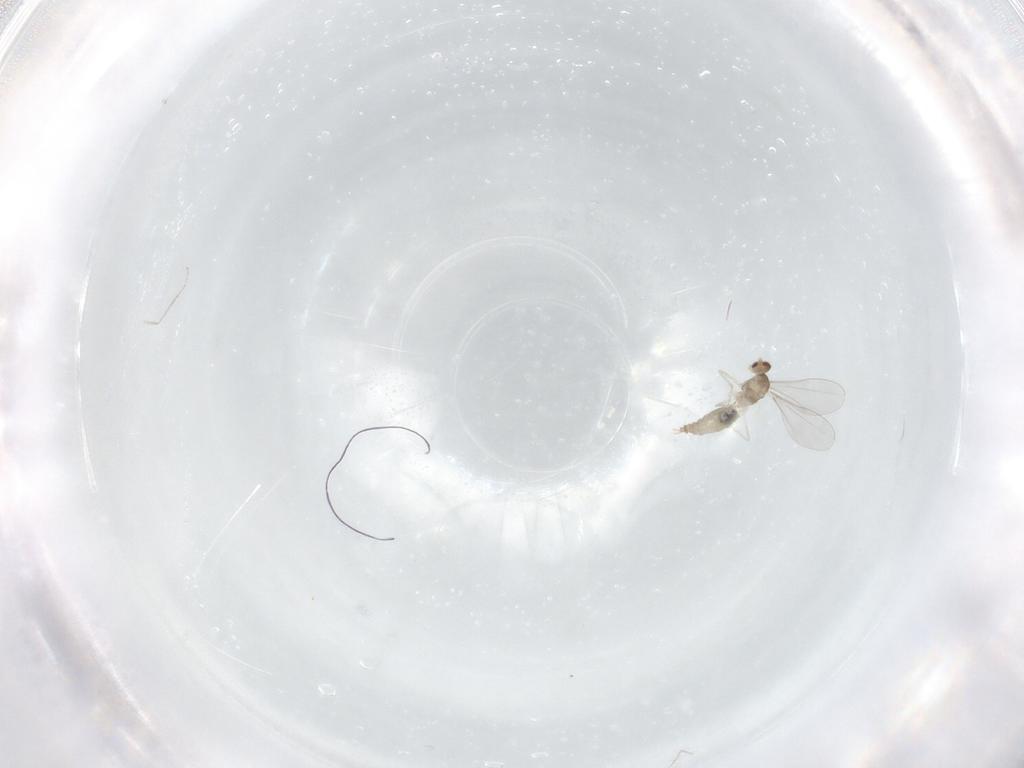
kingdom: Animalia
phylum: Arthropoda
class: Insecta
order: Diptera
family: Cecidomyiidae
